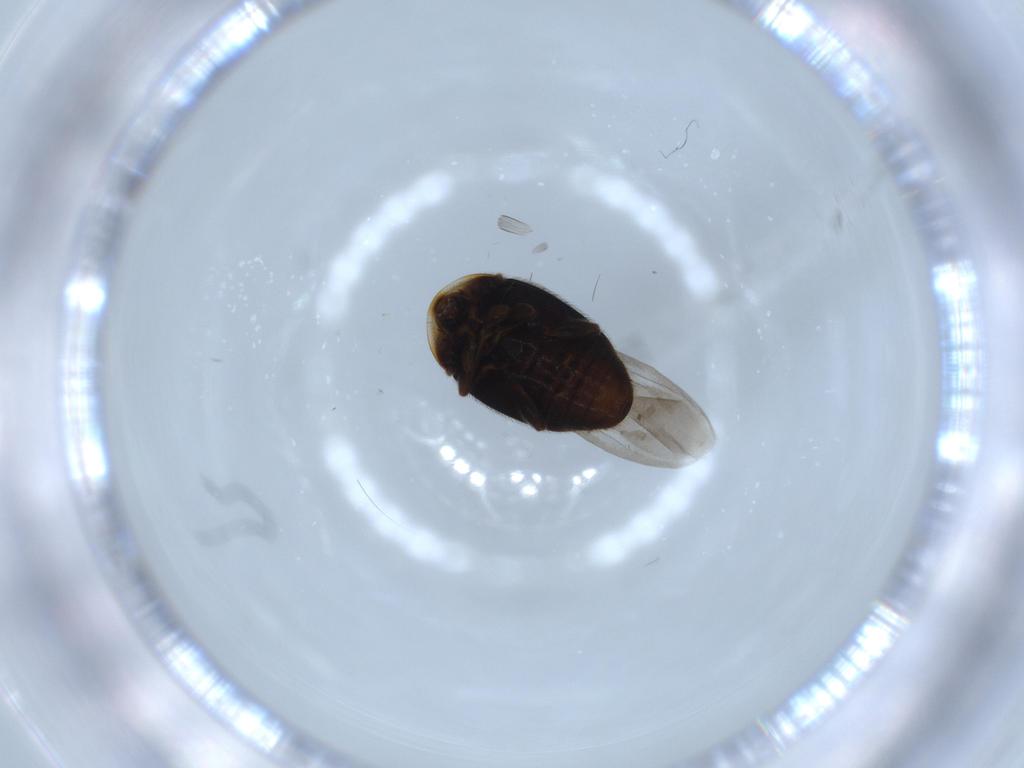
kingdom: Animalia
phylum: Arthropoda
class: Insecta
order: Coleoptera
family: Corylophidae
